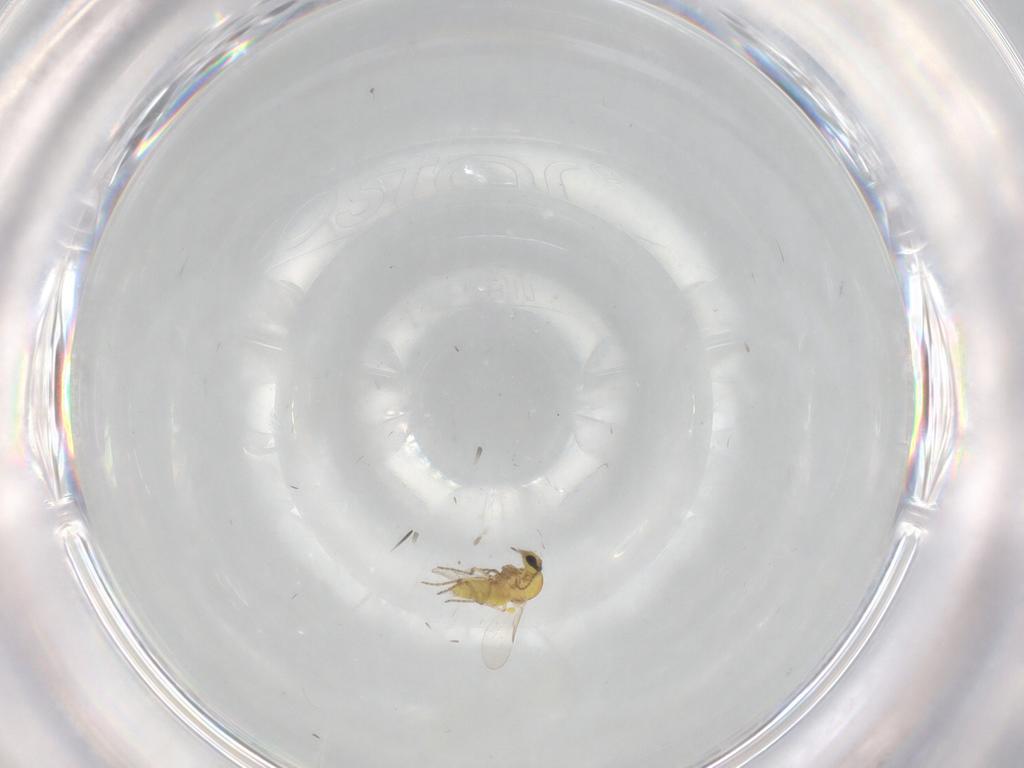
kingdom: Animalia
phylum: Arthropoda
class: Insecta
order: Diptera
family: Ceratopogonidae
